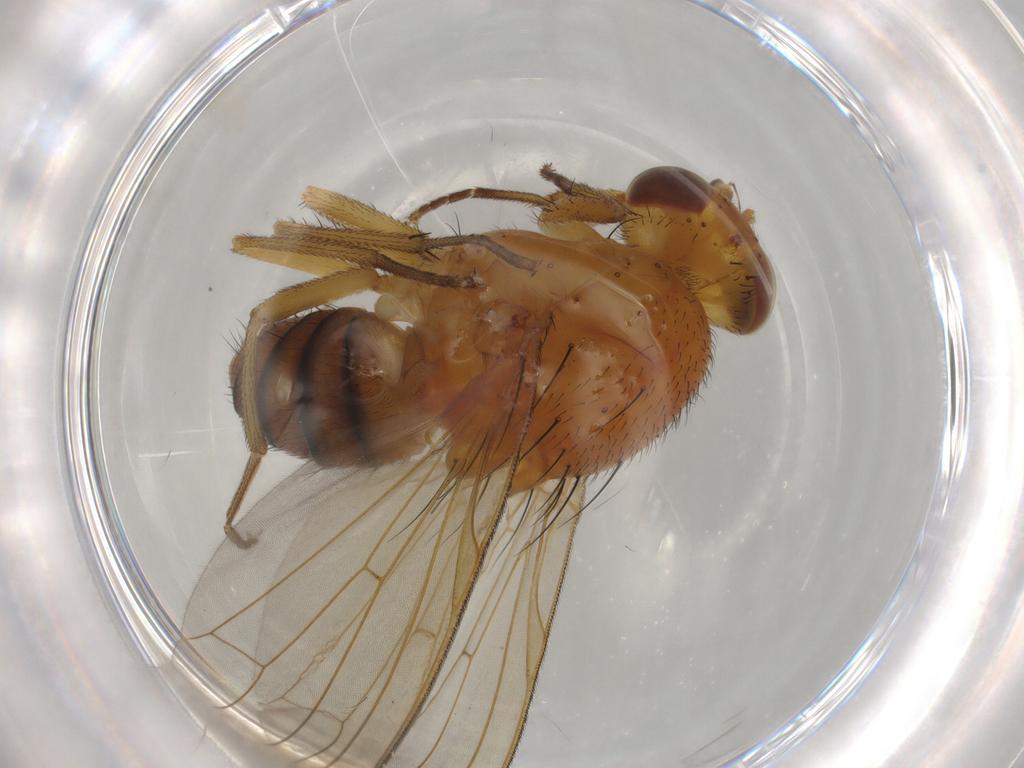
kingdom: Animalia
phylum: Arthropoda
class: Insecta
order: Diptera
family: Cecidomyiidae
